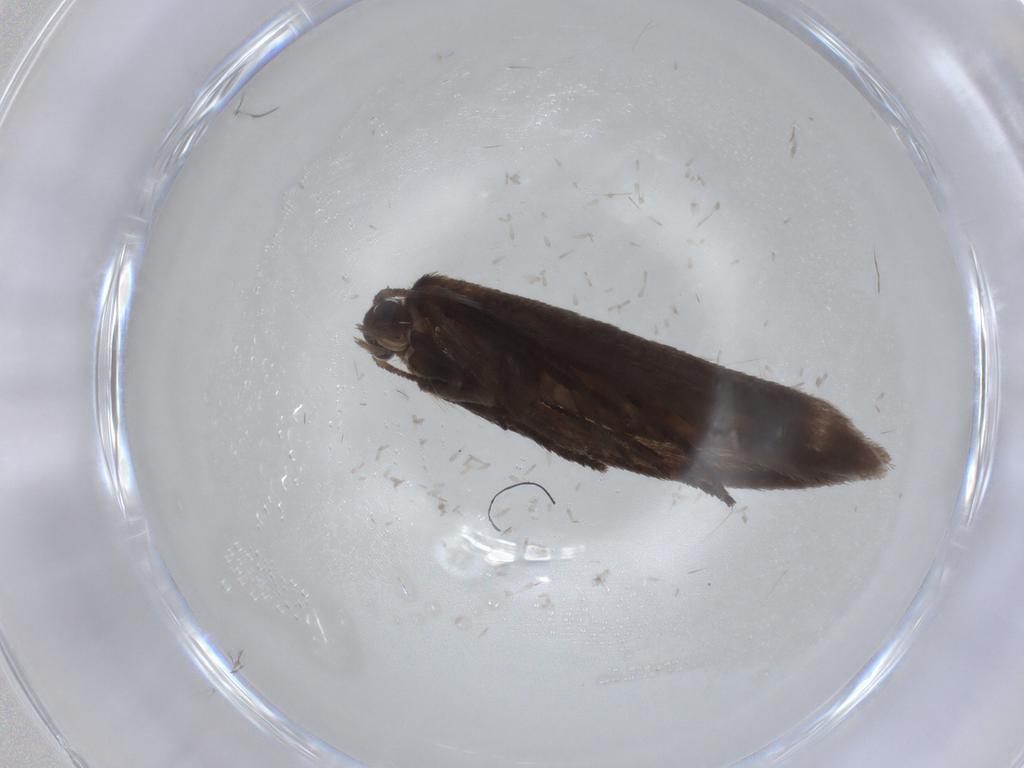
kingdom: Animalia
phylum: Arthropoda
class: Insecta
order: Lepidoptera
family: Limacodidae
